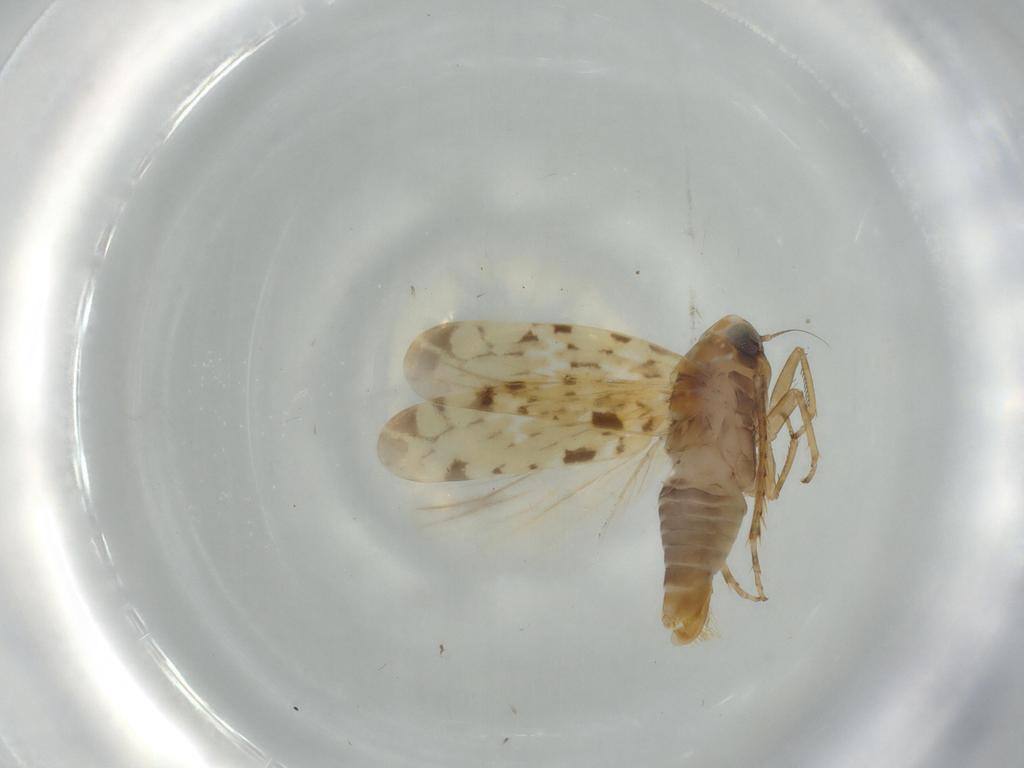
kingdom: Animalia
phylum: Arthropoda
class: Insecta
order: Hemiptera
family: Cicadellidae
